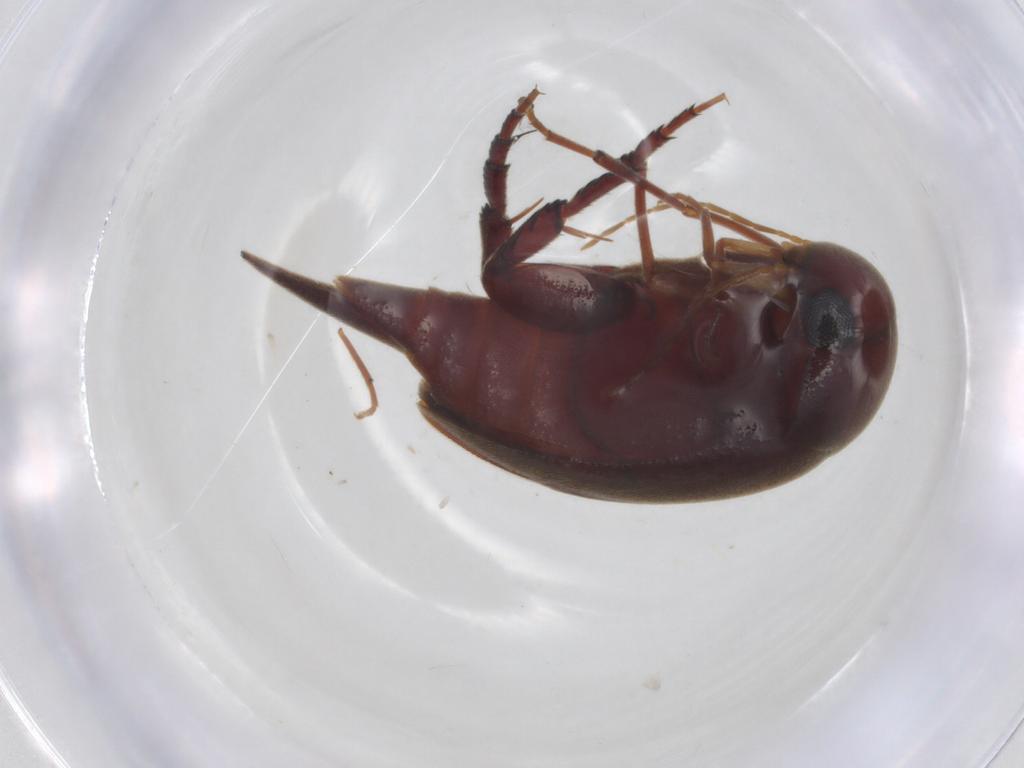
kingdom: Animalia
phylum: Arthropoda
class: Insecta
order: Coleoptera
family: Mordellidae
